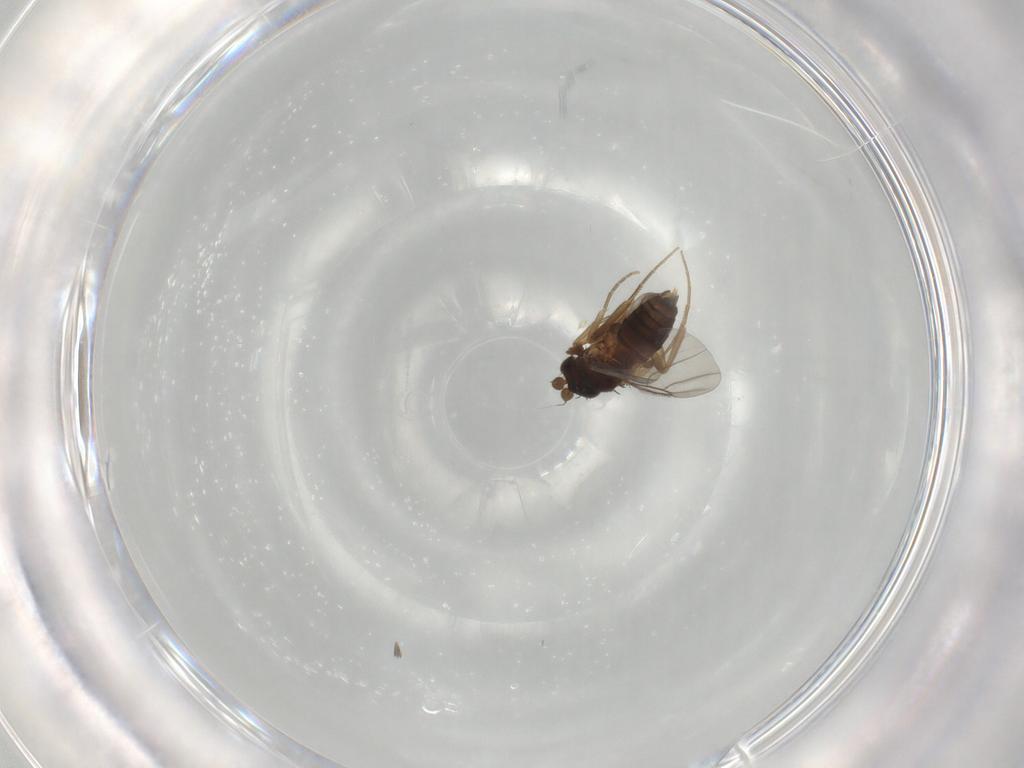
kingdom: Animalia
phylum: Arthropoda
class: Insecta
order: Diptera
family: Phoridae
